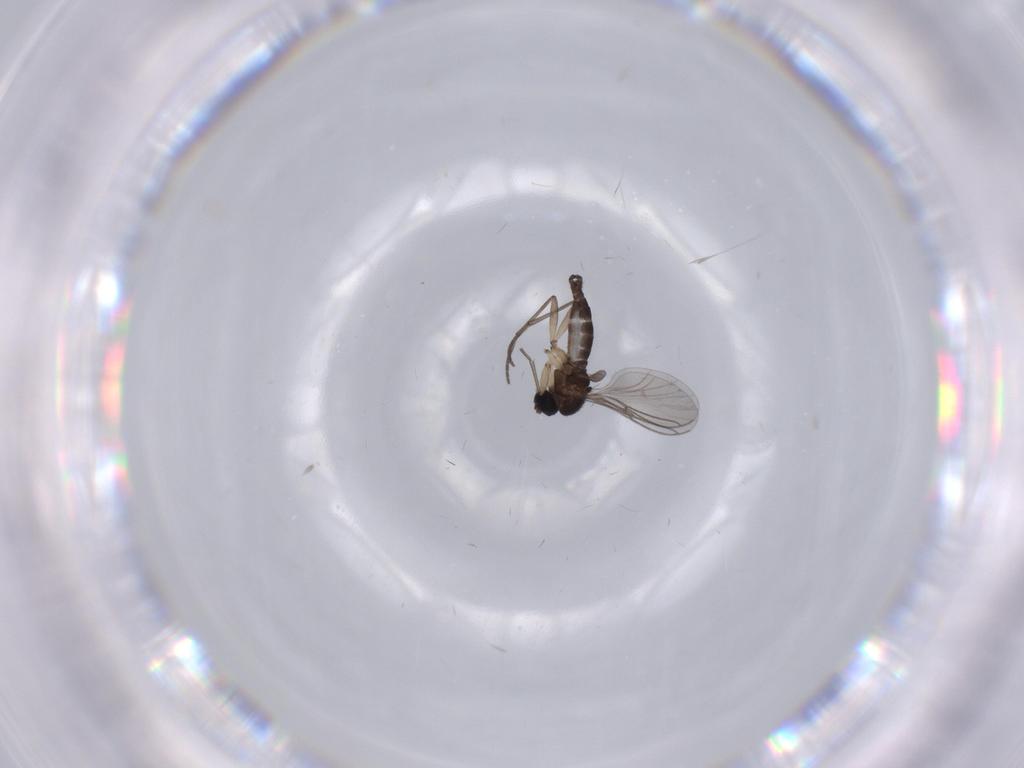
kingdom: Animalia
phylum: Arthropoda
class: Insecta
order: Diptera
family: Sciaridae
